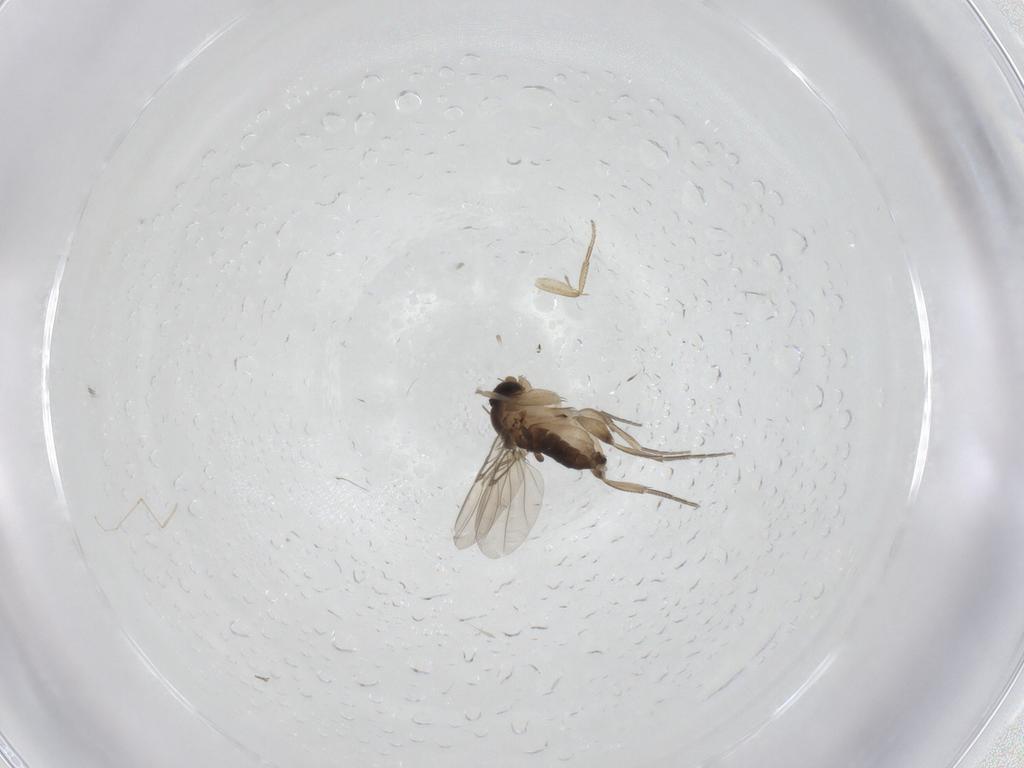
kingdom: Animalia
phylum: Arthropoda
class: Insecta
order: Diptera
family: Phoridae
